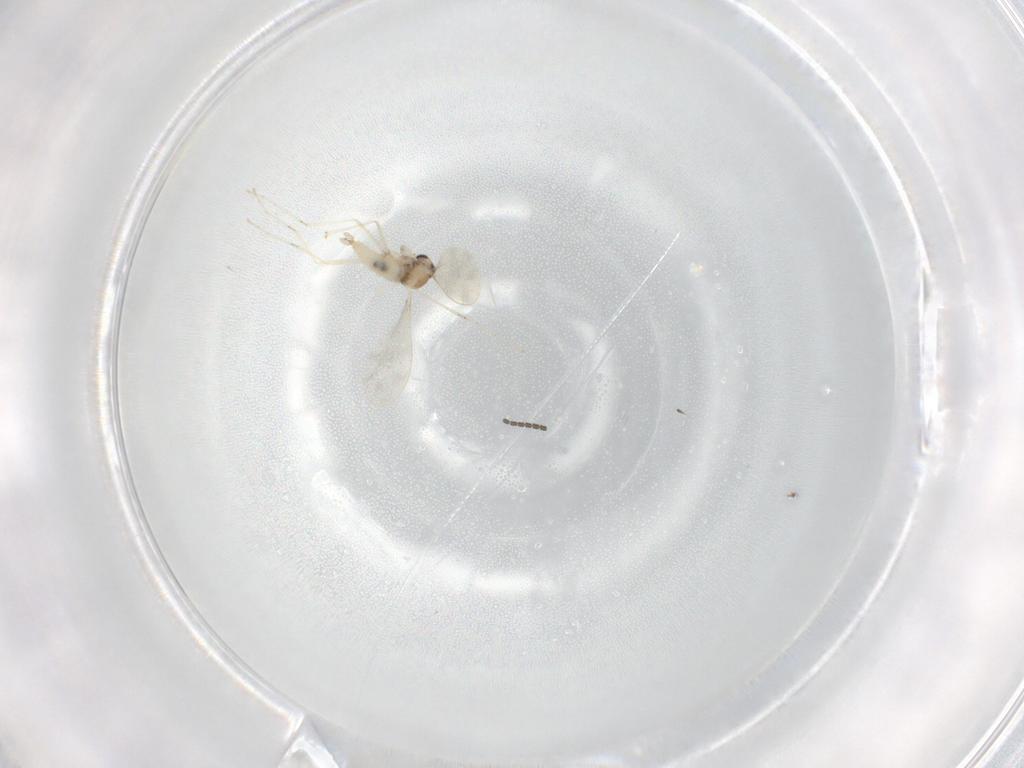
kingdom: Animalia
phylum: Arthropoda
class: Insecta
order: Diptera
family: Sciaridae
